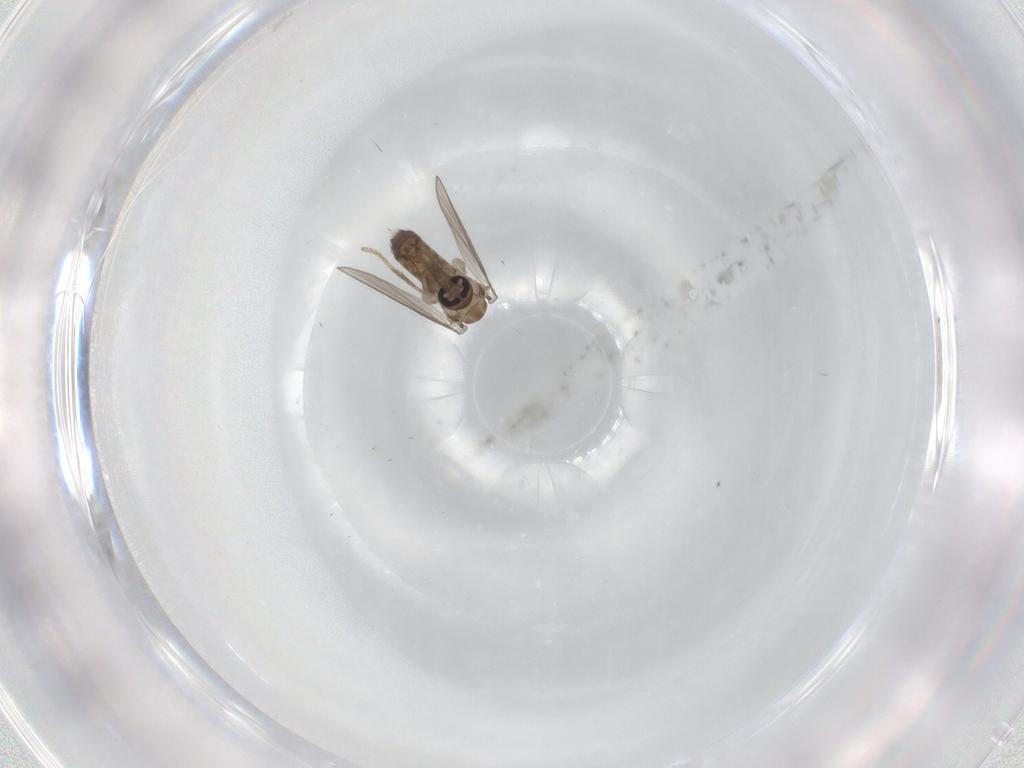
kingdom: Animalia
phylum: Arthropoda
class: Insecta
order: Diptera
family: Psychodidae
